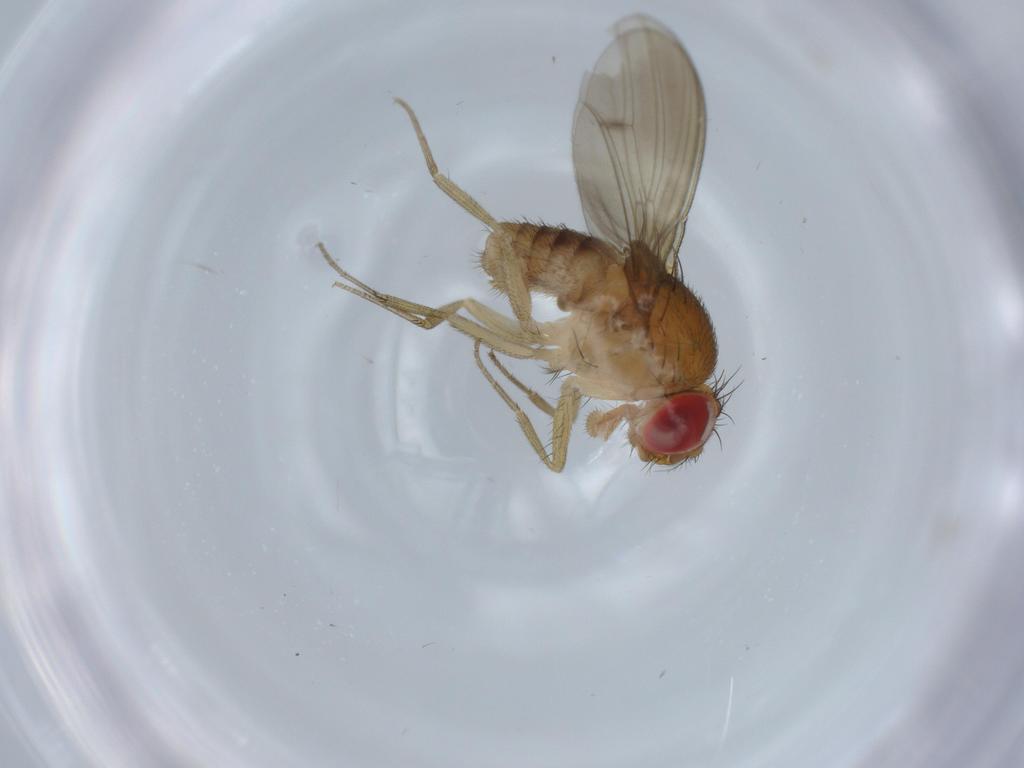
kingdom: Animalia
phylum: Arthropoda
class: Insecta
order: Diptera
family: Drosophilidae
